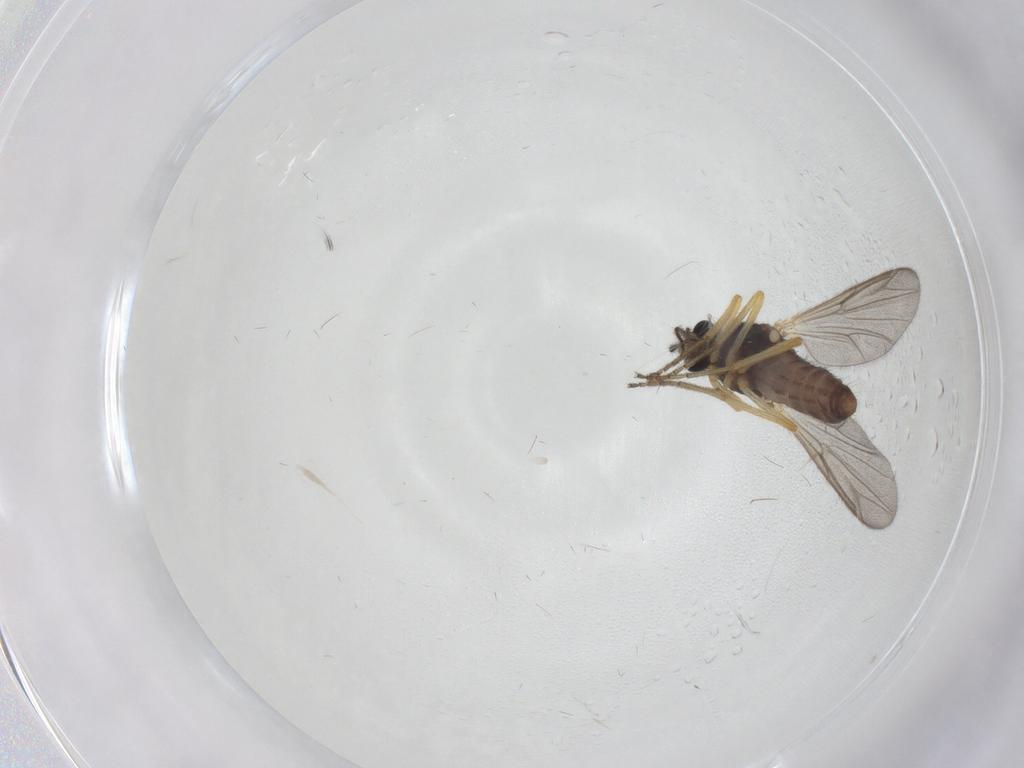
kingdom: Animalia
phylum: Arthropoda
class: Insecta
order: Diptera
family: Ceratopogonidae
